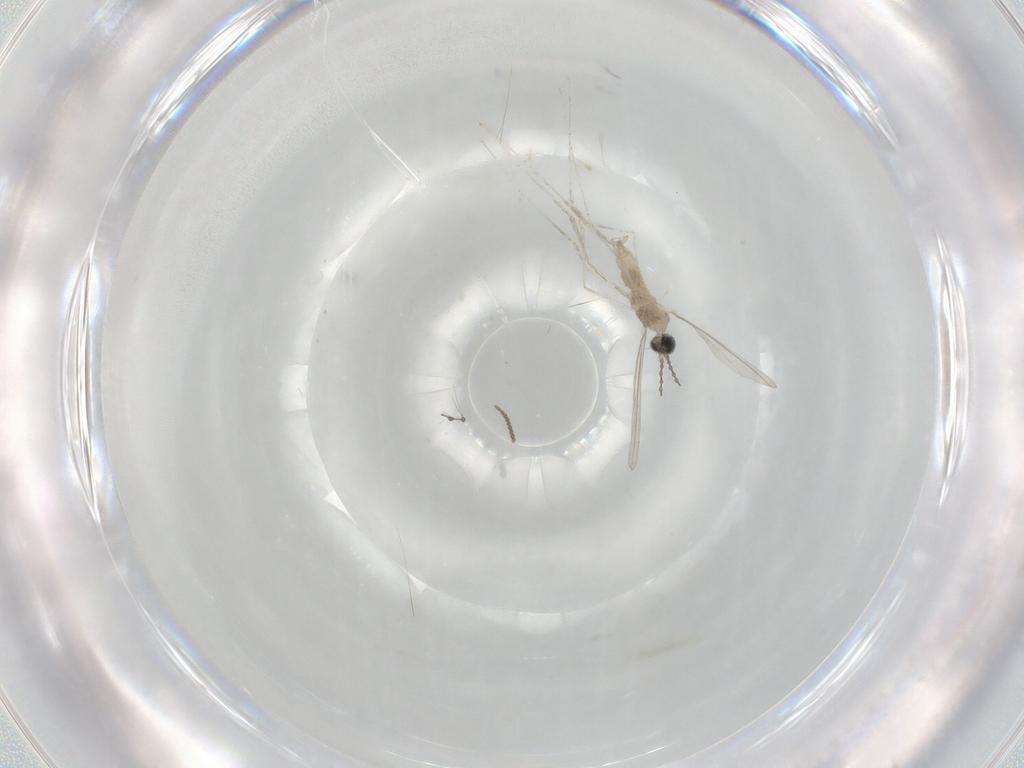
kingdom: Animalia
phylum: Arthropoda
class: Insecta
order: Diptera
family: Cecidomyiidae
